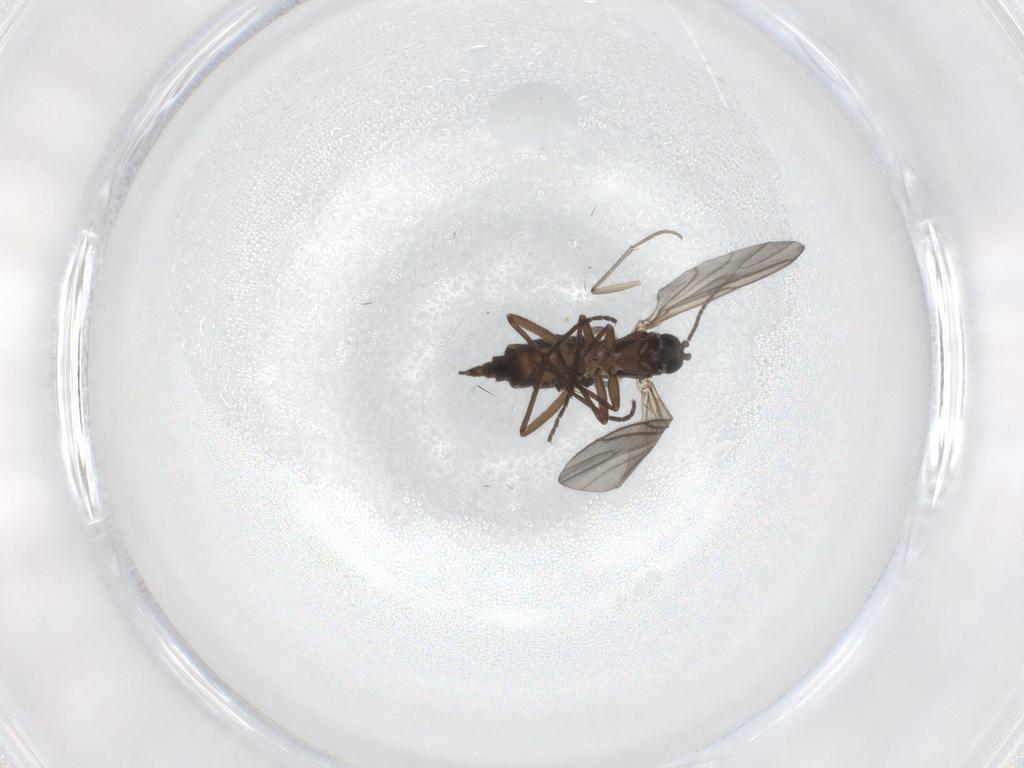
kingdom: Animalia
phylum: Arthropoda
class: Insecta
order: Diptera
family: Sciaridae
